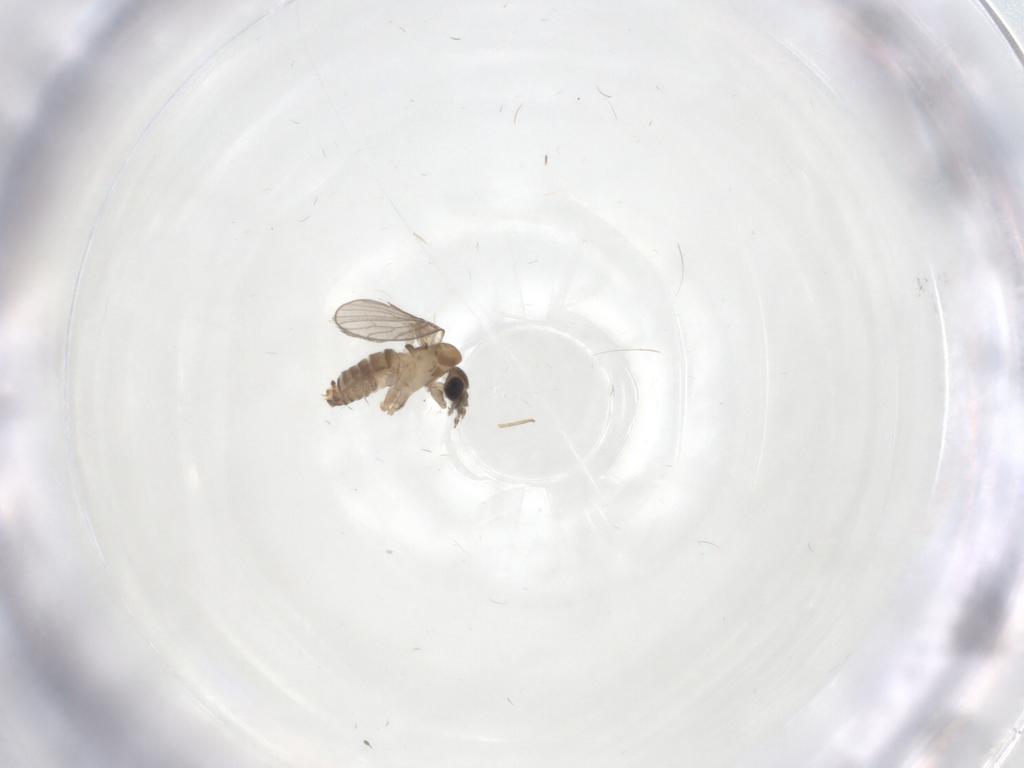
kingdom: Animalia
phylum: Arthropoda
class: Insecta
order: Diptera
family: Psychodidae
